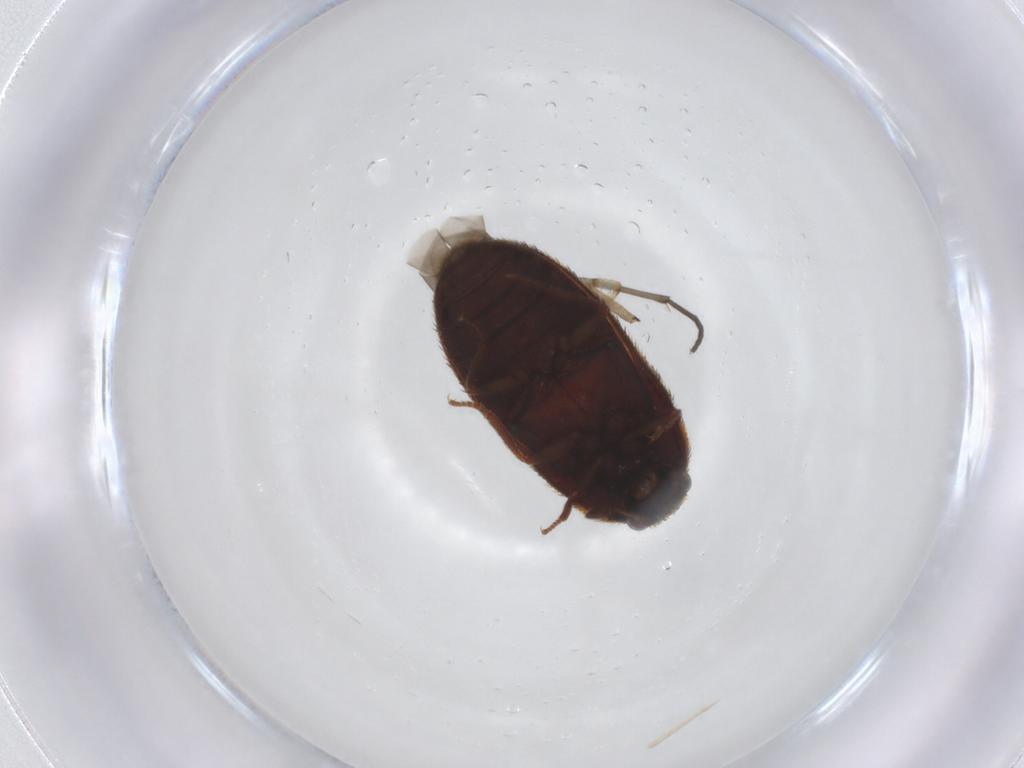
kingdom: Animalia
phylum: Arthropoda
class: Insecta
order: Coleoptera
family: Dermestidae
